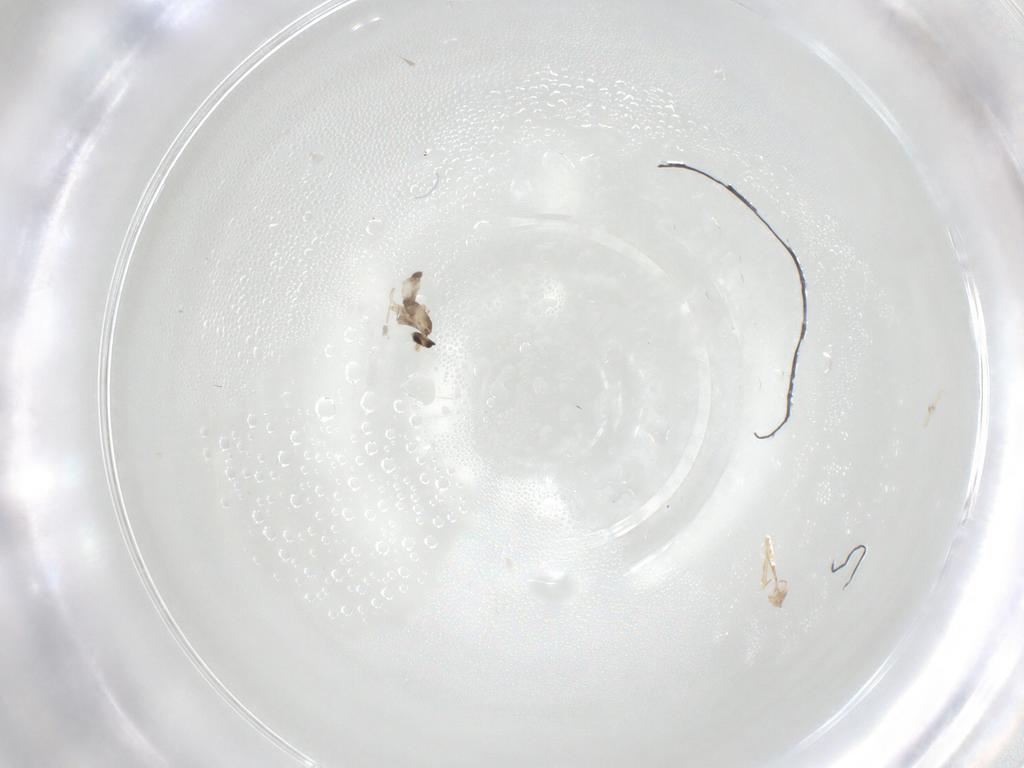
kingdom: Animalia
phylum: Arthropoda
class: Insecta
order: Diptera
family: Cecidomyiidae
